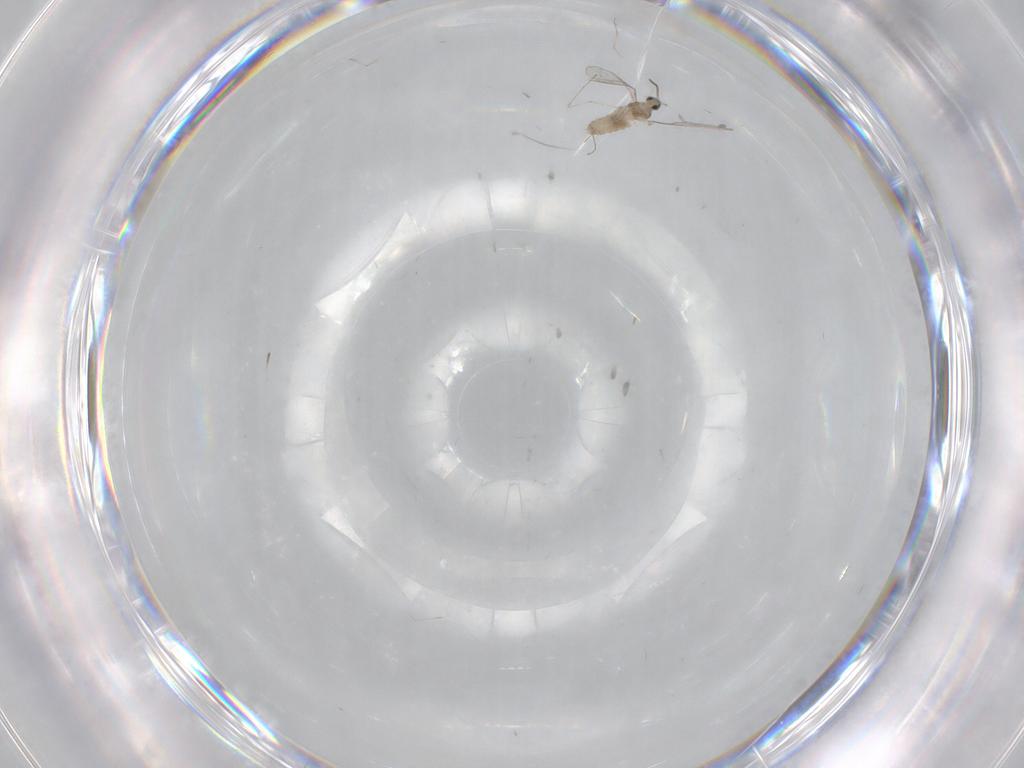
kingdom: Animalia
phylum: Arthropoda
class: Insecta
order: Diptera
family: Cecidomyiidae
